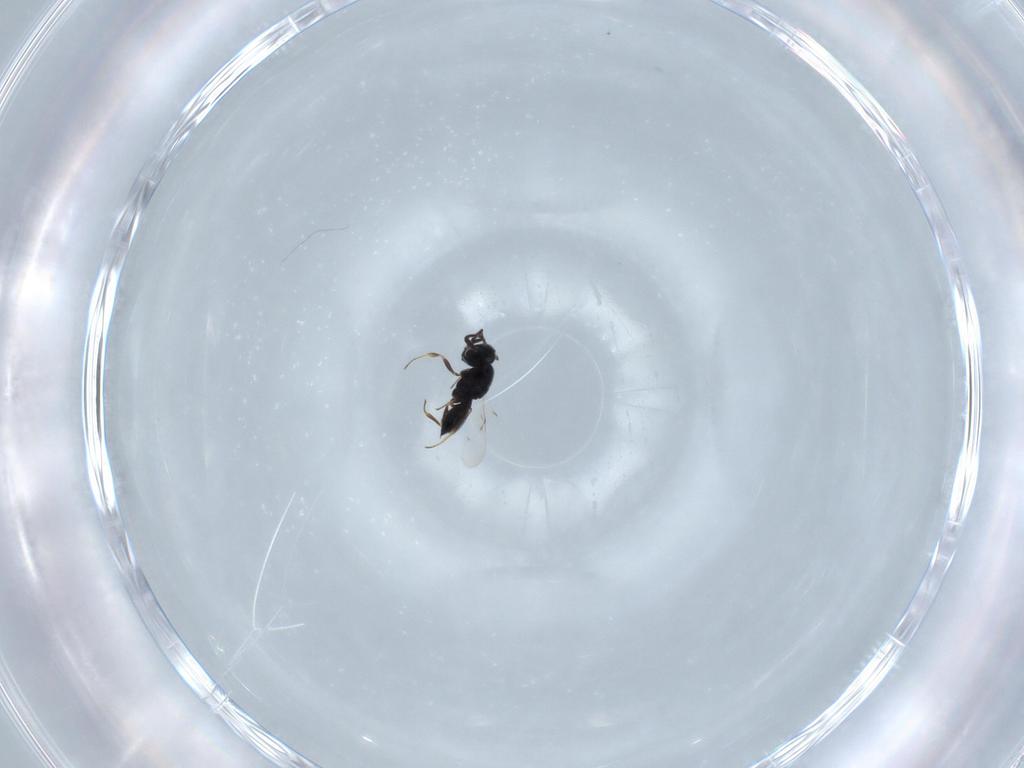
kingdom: Animalia
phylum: Arthropoda
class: Insecta
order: Hymenoptera
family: Scelionidae
